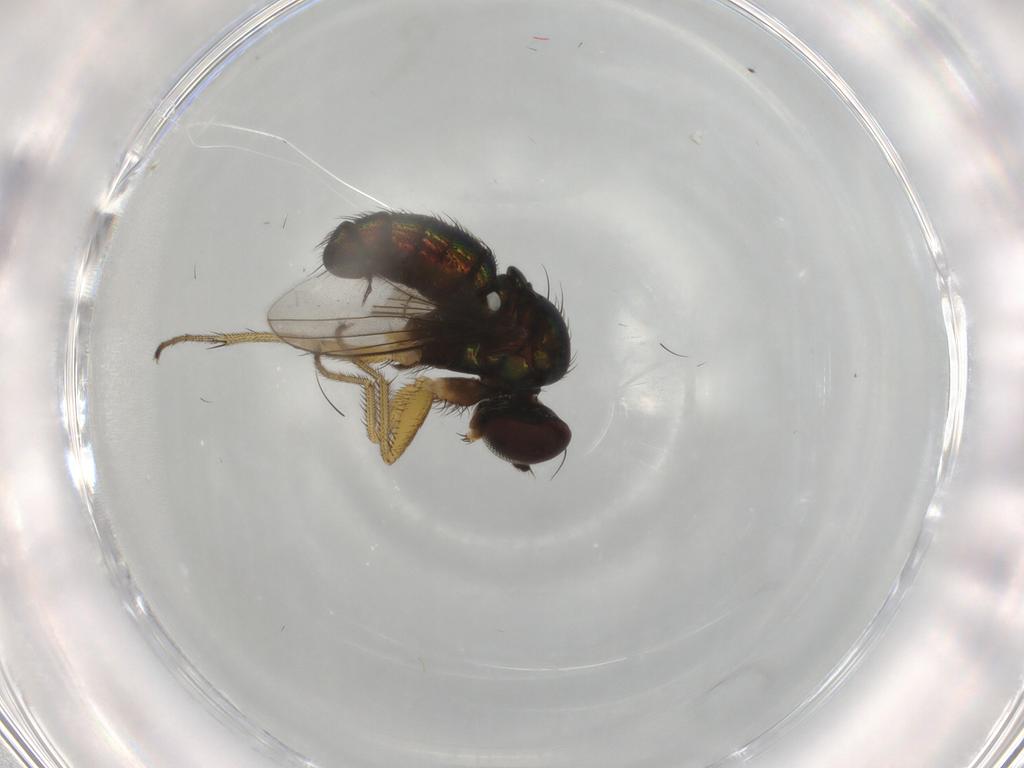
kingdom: Animalia
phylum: Arthropoda
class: Insecta
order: Diptera
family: Dolichopodidae
